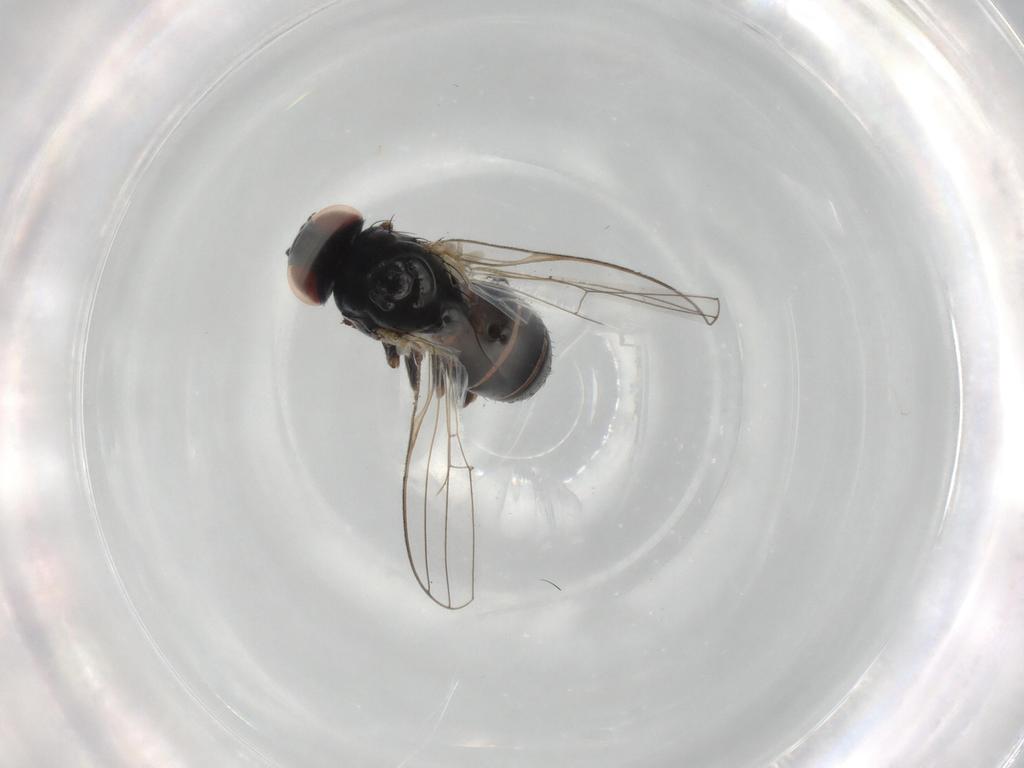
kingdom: Animalia
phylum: Arthropoda
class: Insecta
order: Diptera
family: Chamaemyiidae
